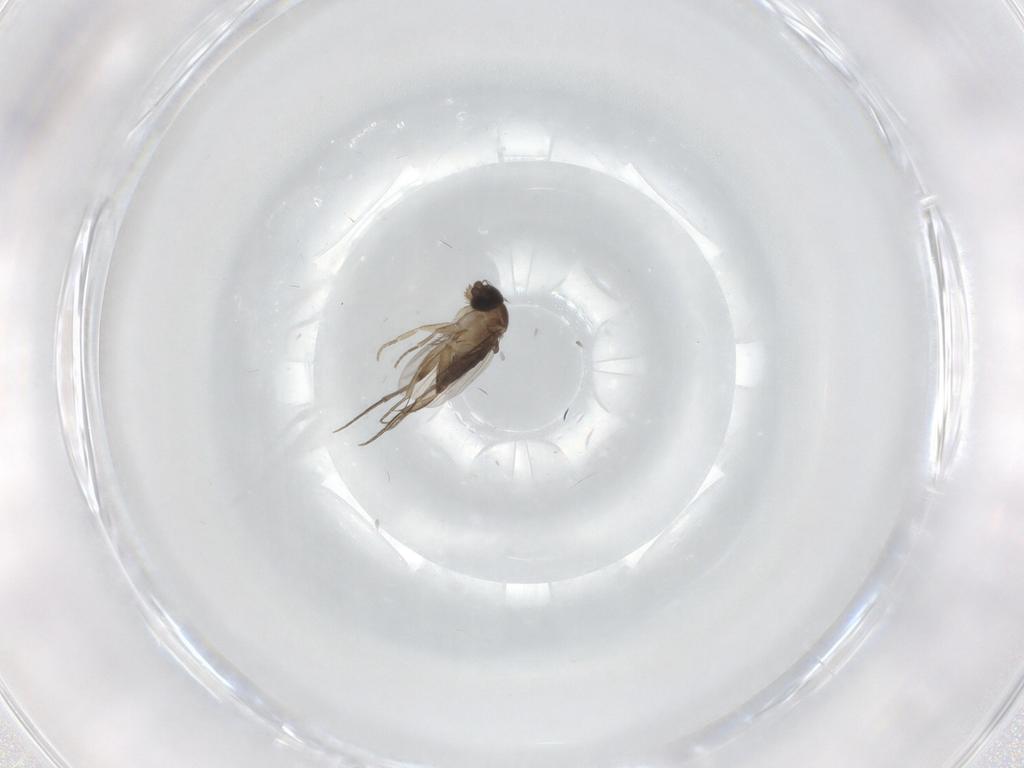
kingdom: Animalia
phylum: Arthropoda
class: Insecta
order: Diptera
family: Phoridae
